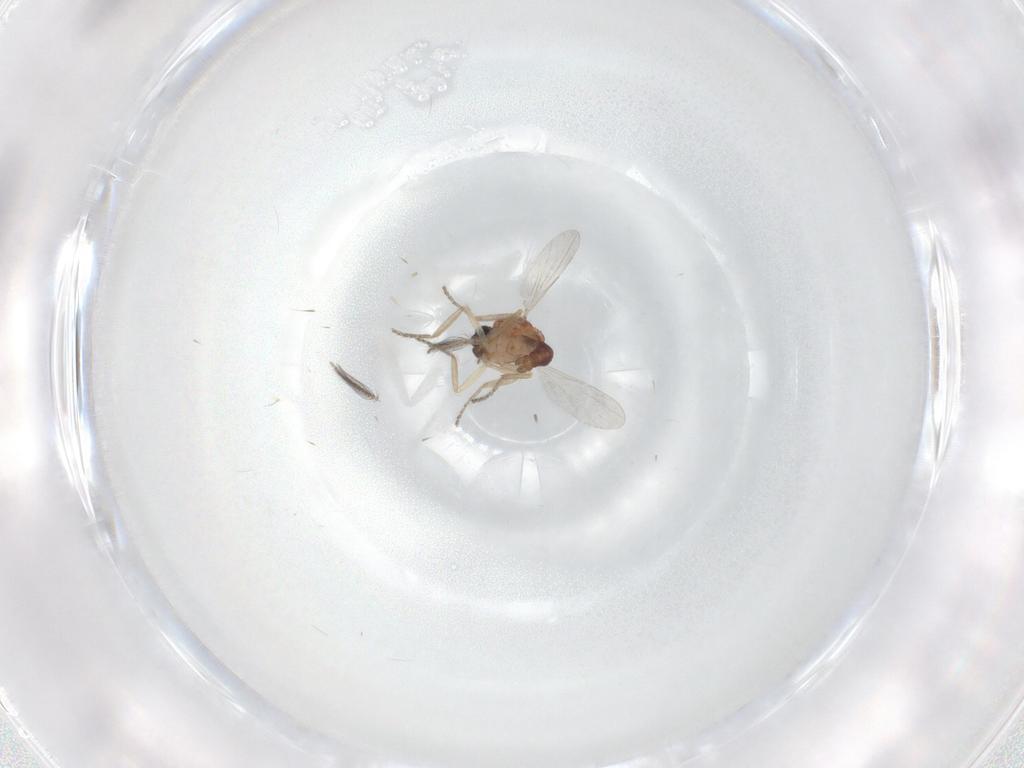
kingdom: Animalia
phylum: Arthropoda
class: Insecta
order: Diptera
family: Ceratopogonidae
